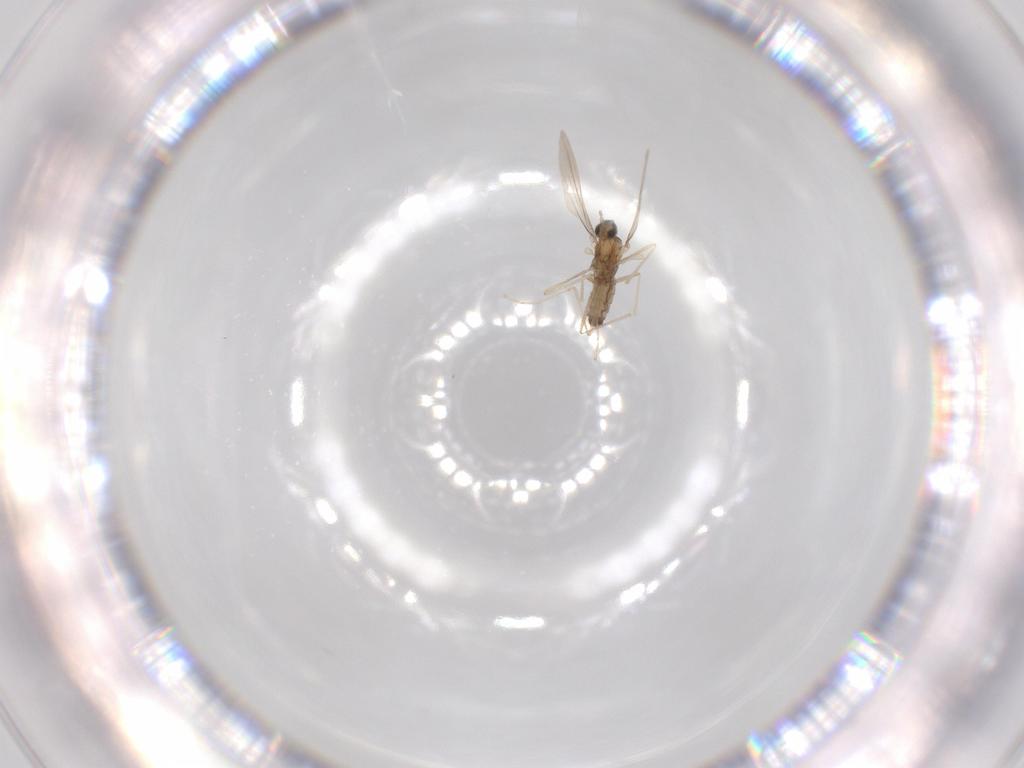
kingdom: Animalia
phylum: Arthropoda
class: Insecta
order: Diptera
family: Cecidomyiidae
